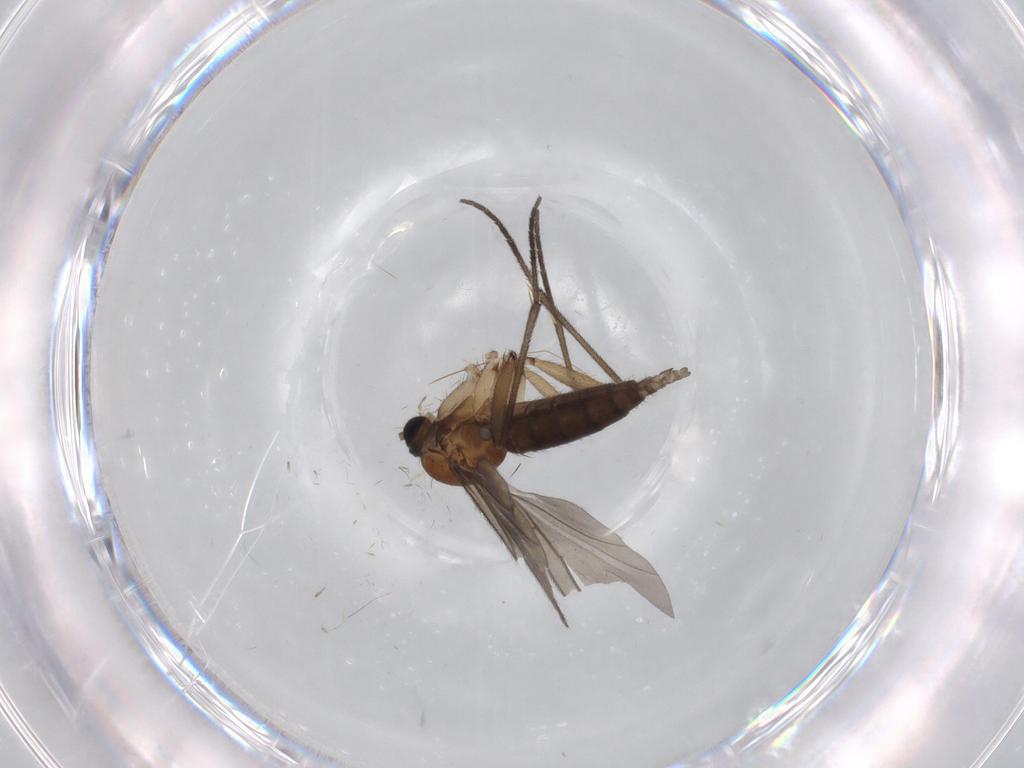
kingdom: Animalia
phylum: Arthropoda
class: Insecta
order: Diptera
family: Sciaridae
